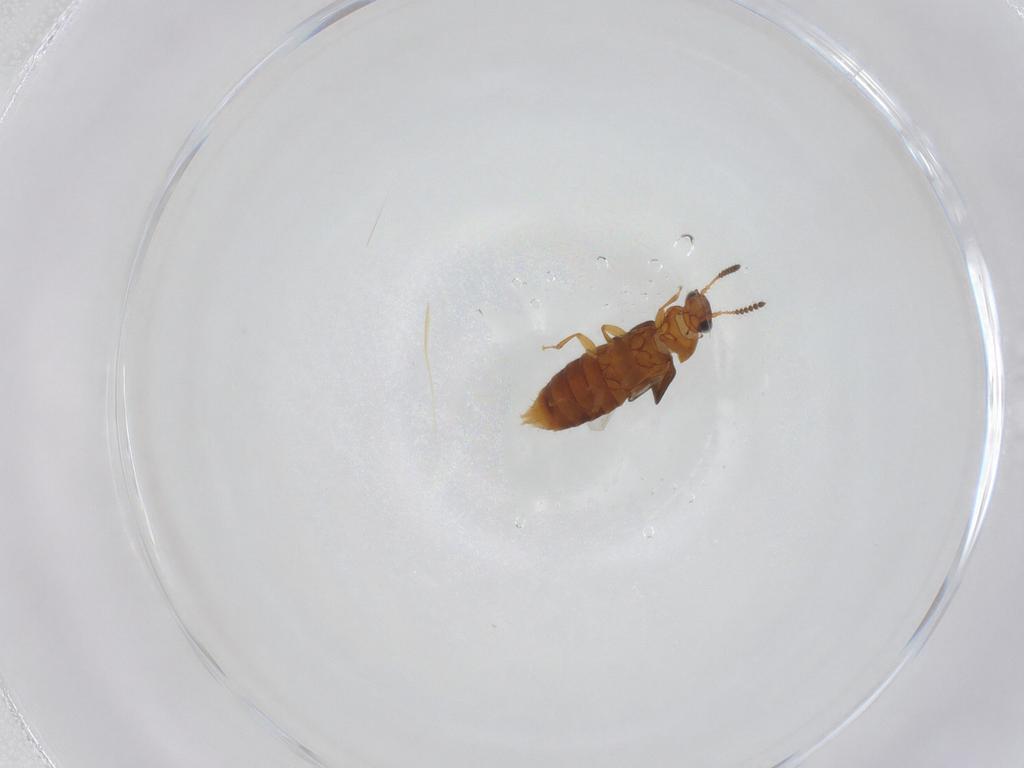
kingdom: Animalia
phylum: Arthropoda
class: Insecta
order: Coleoptera
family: Staphylinidae
